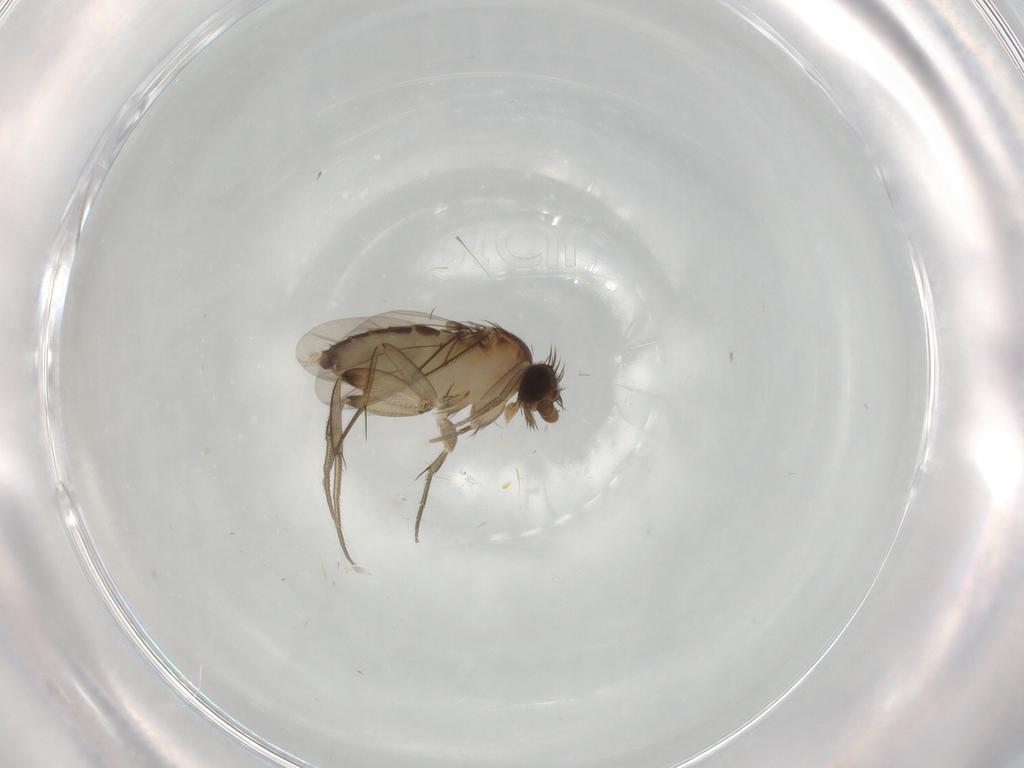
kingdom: Animalia
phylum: Arthropoda
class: Insecta
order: Diptera
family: Phoridae
